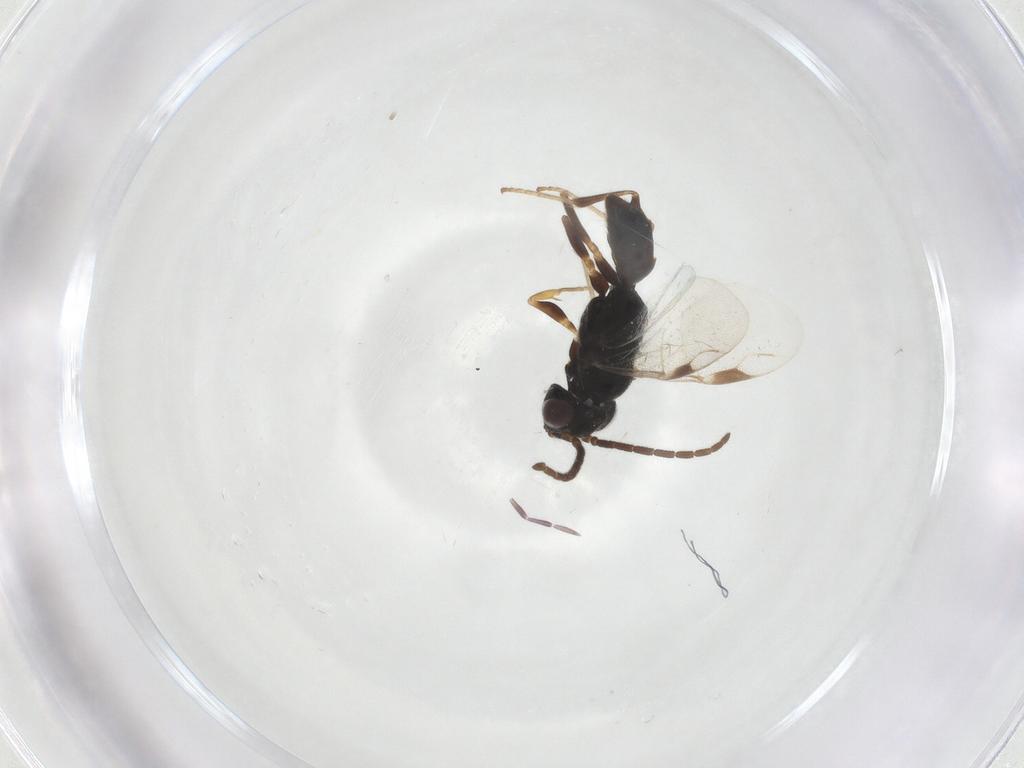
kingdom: Animalia
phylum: Arthropoda
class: Insecta
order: Hymenoptera
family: Dryinidae
